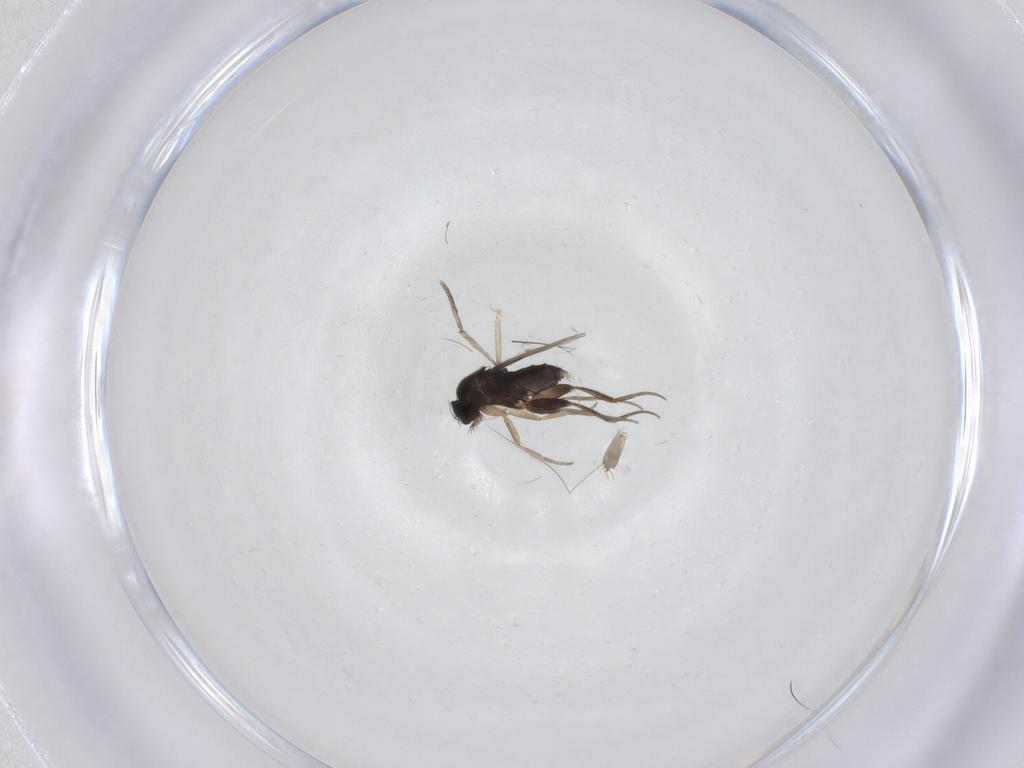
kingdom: Animalia
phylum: Arthropoda
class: Insecta
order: Diptera
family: Phoridae
